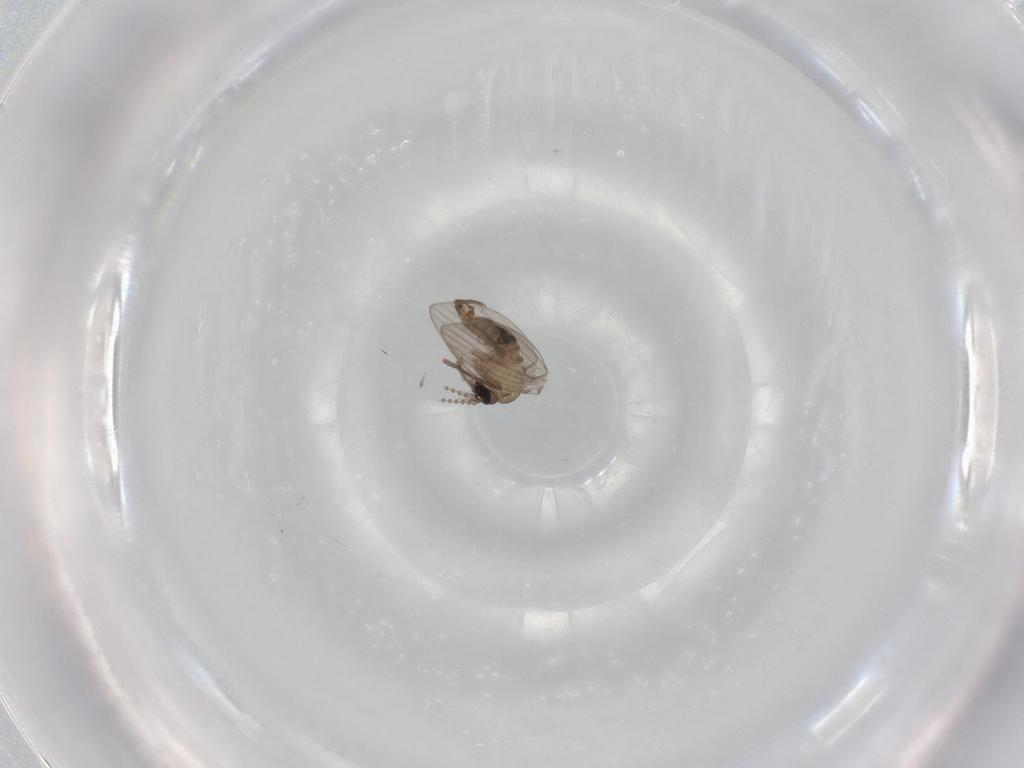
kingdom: Animalia
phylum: Arthropoda
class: Insecta
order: Diptera
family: Psychodidae
